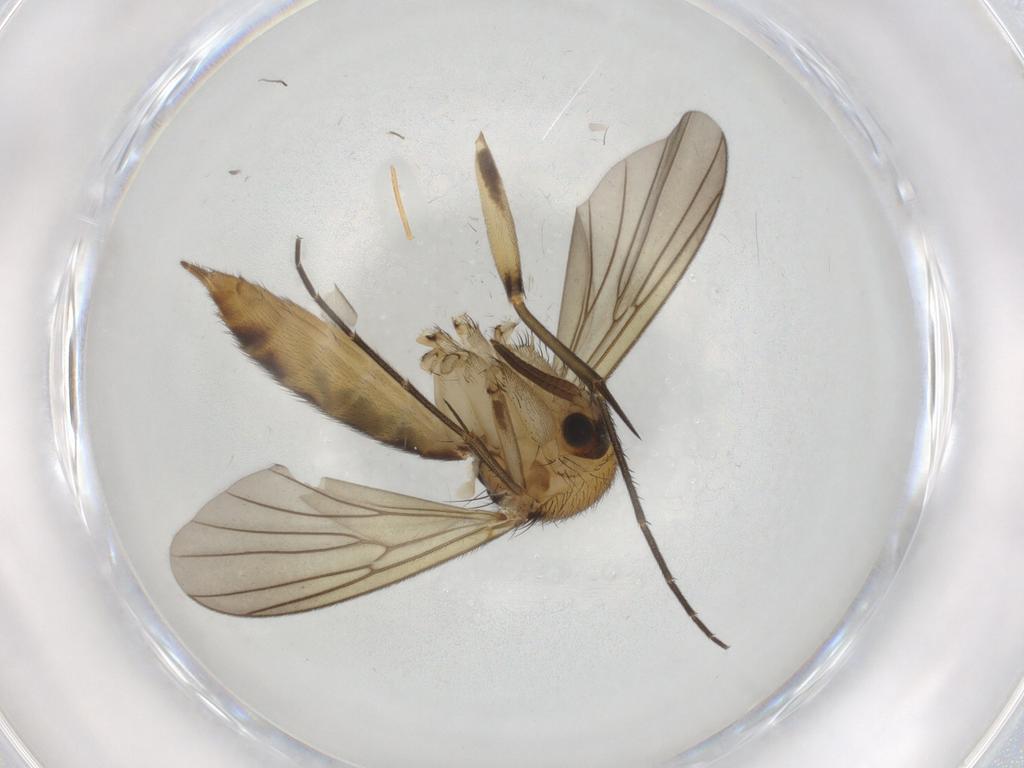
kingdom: Animalia
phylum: Arthropoda
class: Insecta
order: Diptera
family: Mycetophilidae
